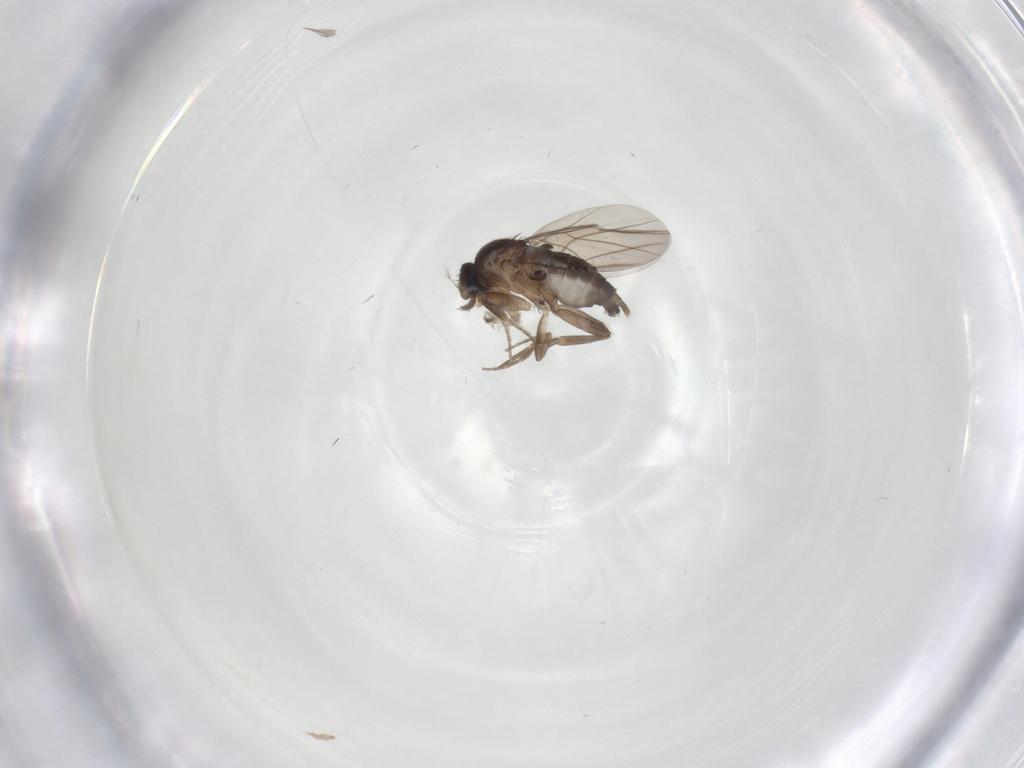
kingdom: Animalia
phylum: Arthropoda
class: Insecta
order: Diptera
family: Phoridae
